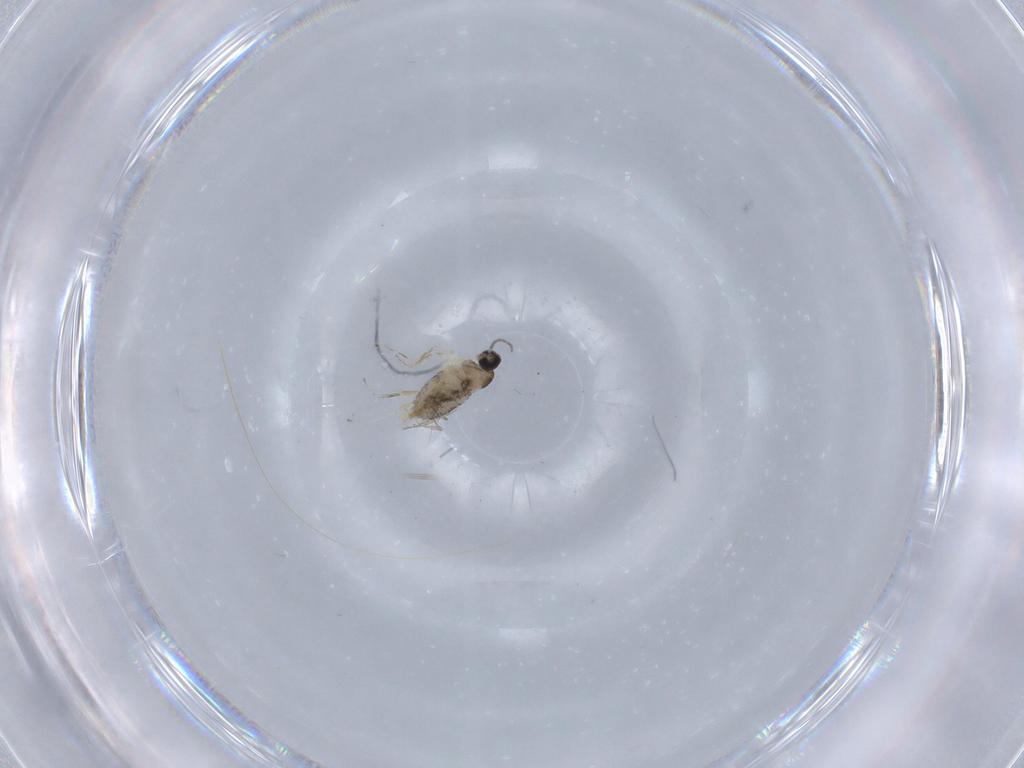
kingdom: Animalia
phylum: Arthropoda
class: Insecta
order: Diptera
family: Cecidomyiidae
